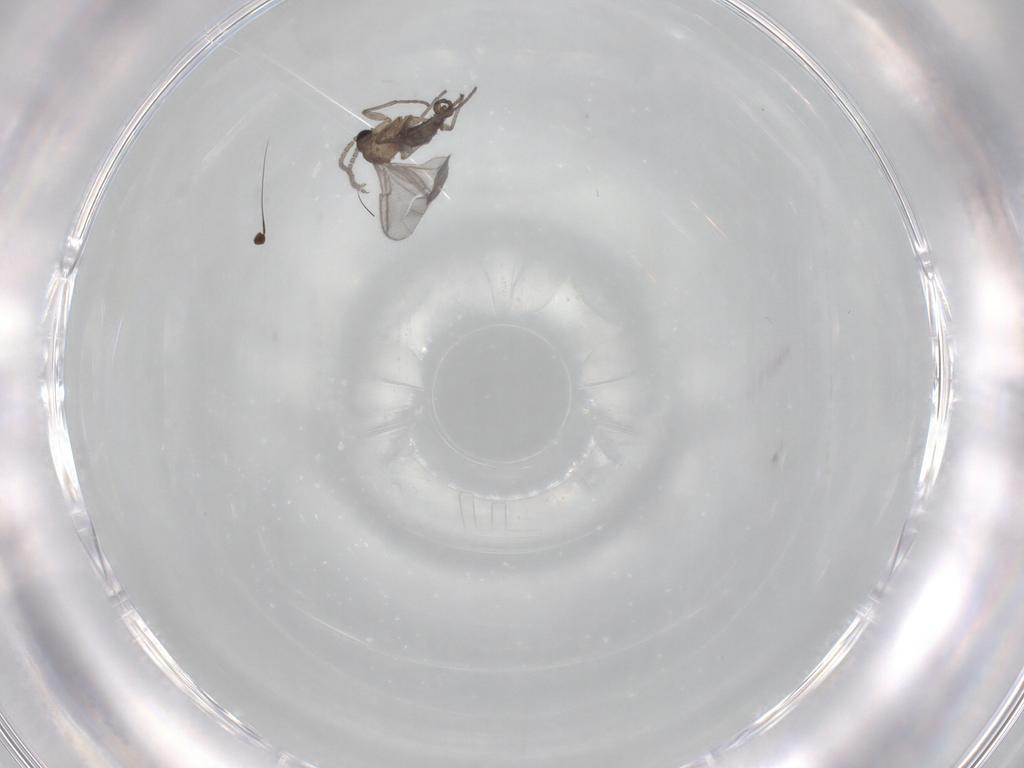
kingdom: Animalia
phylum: Arthropoda
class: Insecta
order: Diptera
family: Sciaridae
